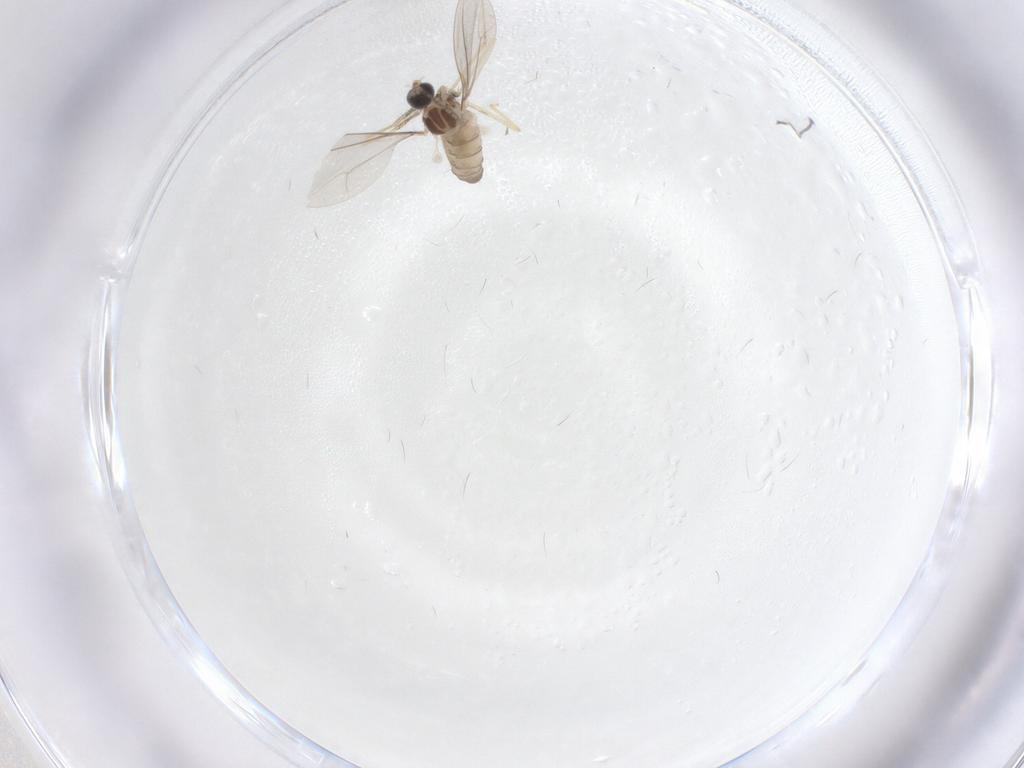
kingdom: Animalia
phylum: Arthropoda
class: Insecta
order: Diptera
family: Cecidomyiidae
